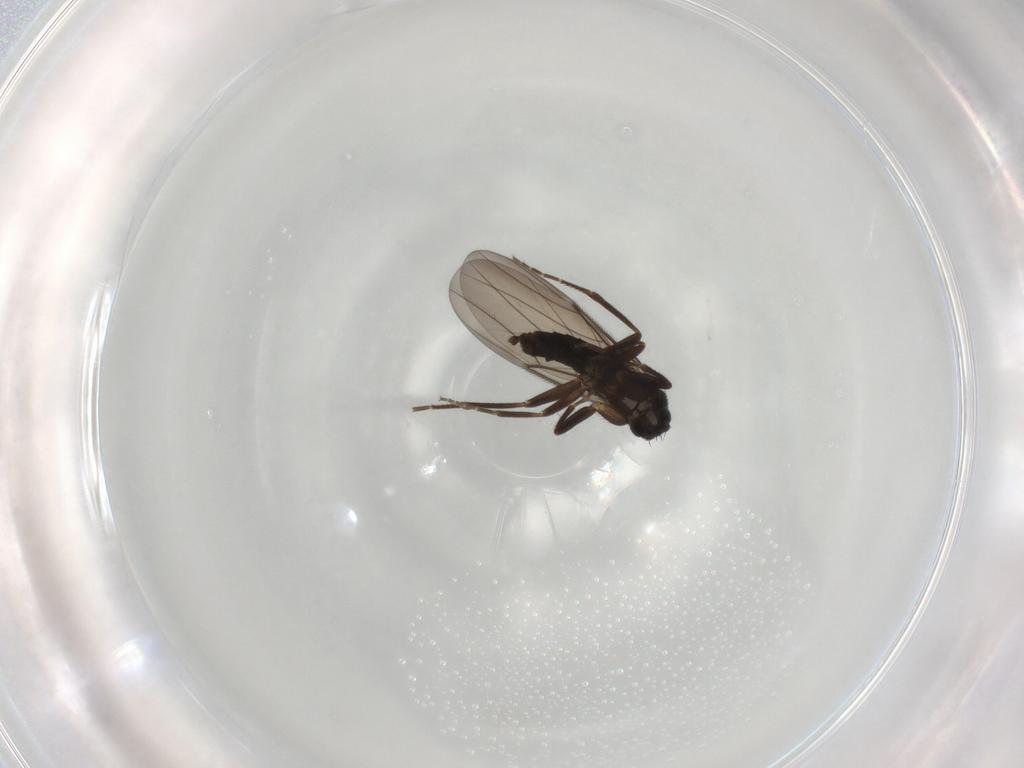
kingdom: Animalia
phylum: Arthropoda
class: Insecta
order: Diptera
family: Phoridae
